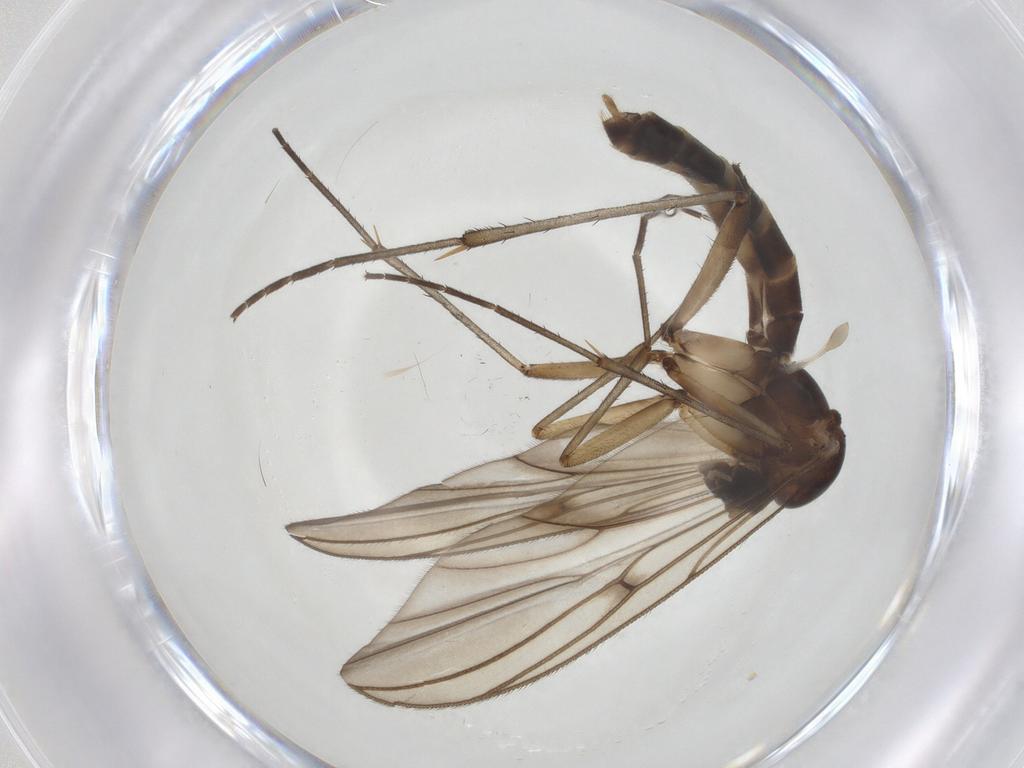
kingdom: Animalia
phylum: Arthropoda
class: Insecta
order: Diptera
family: Mycetophilidae
